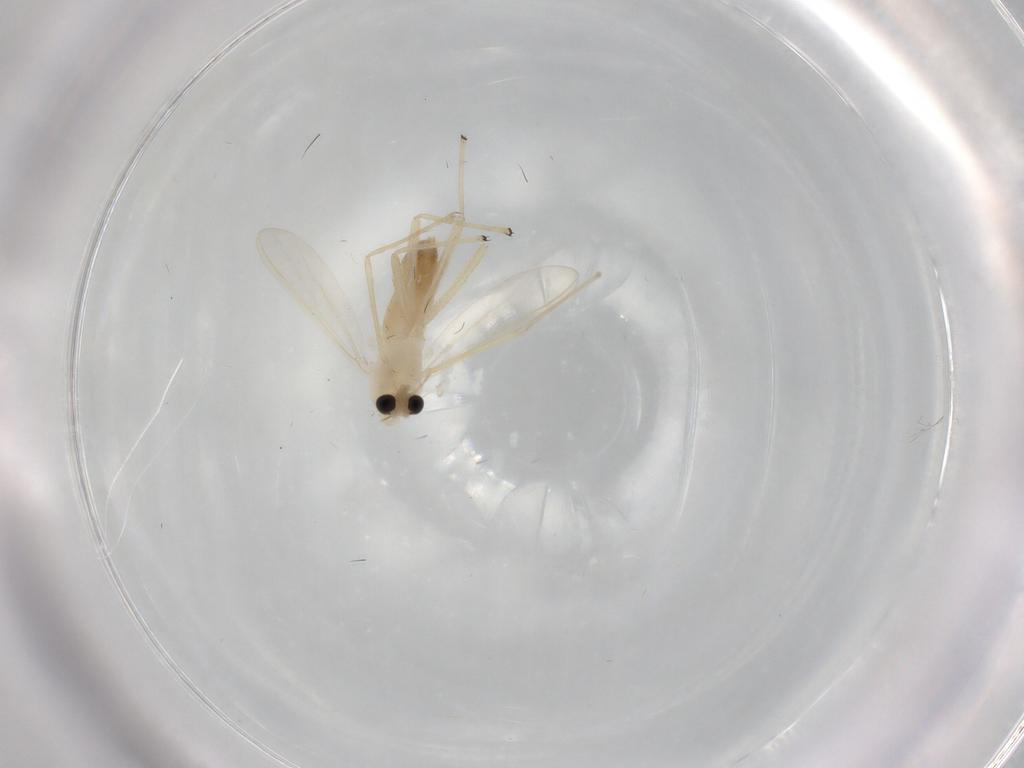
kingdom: Animalia
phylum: Arthropoda
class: Insecta
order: Diptera
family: Chironomidae
